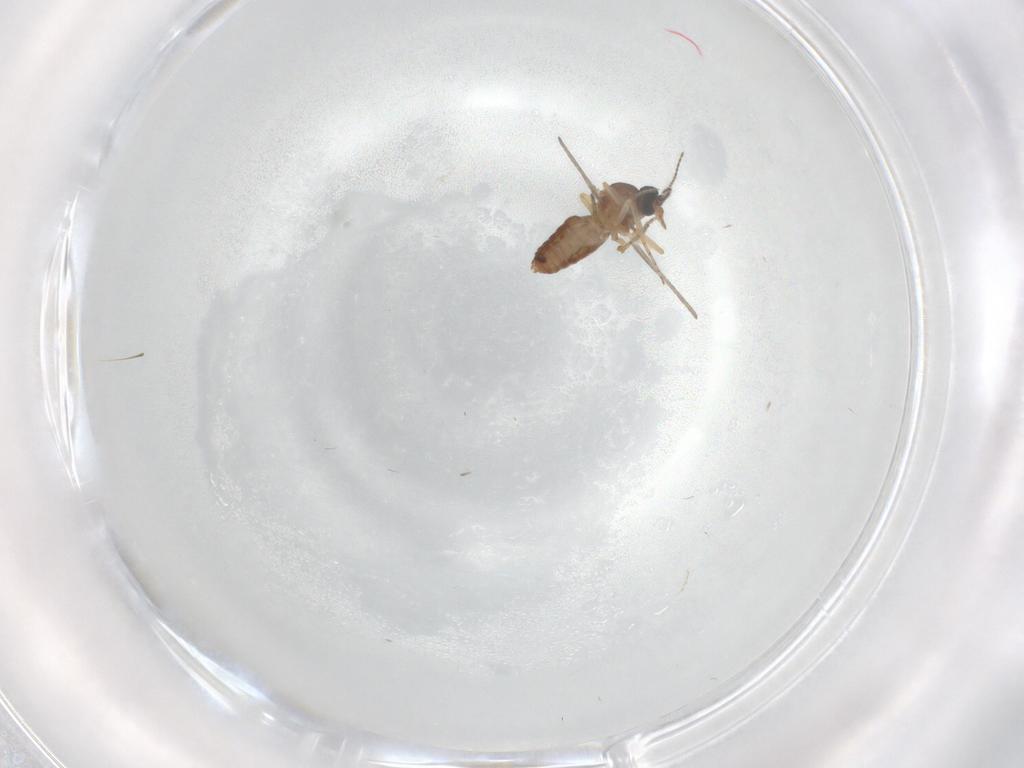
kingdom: Animalia
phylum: Arthropoda
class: Insecta
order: Diptera
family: Ceratopogonidae
